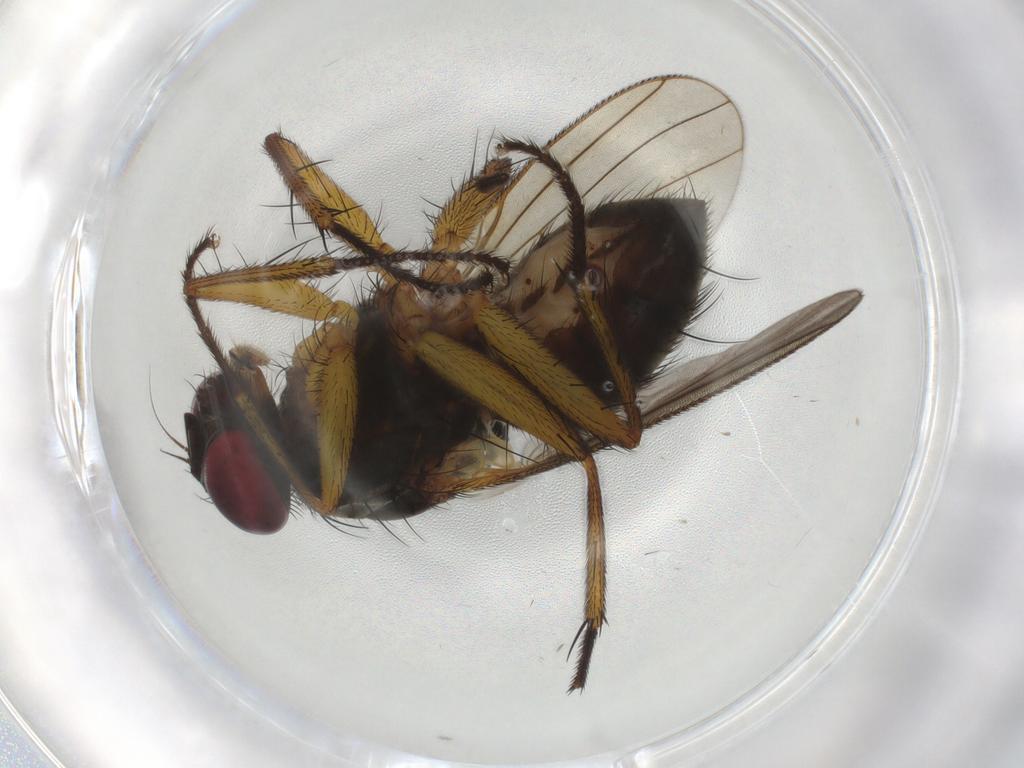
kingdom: Animalia
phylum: Arthropoda
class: Insecta
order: Diptera
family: Muscidae
